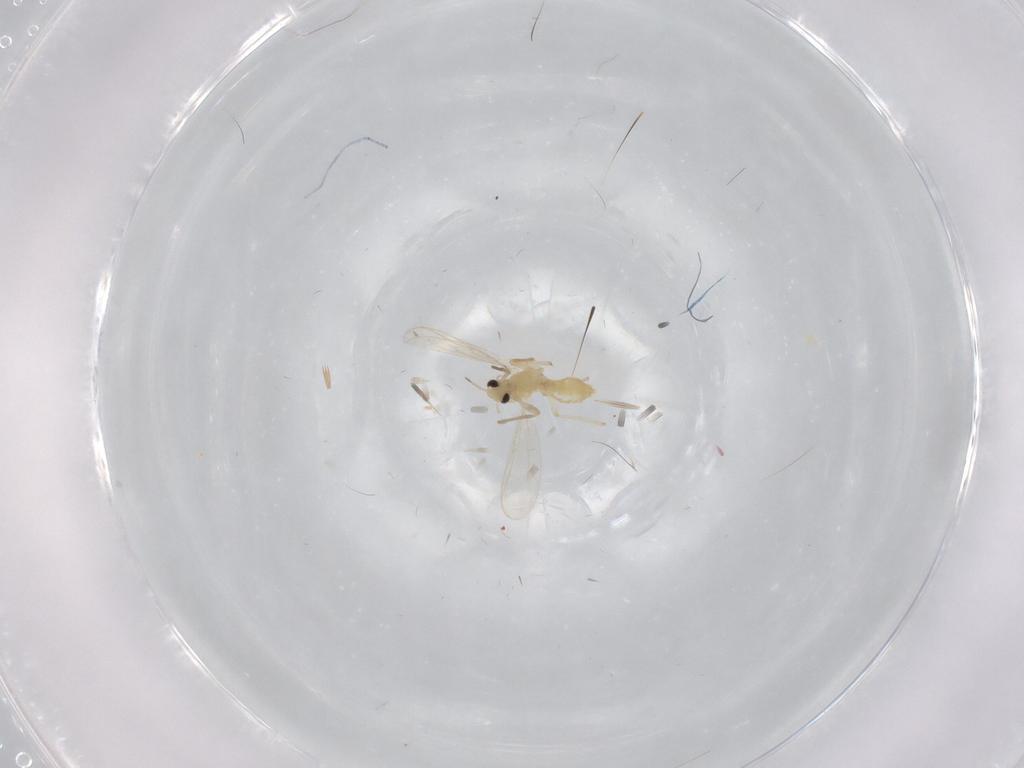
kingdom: Animalia
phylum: Arthropoda
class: Insecta
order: Diptera
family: Chironomidae
